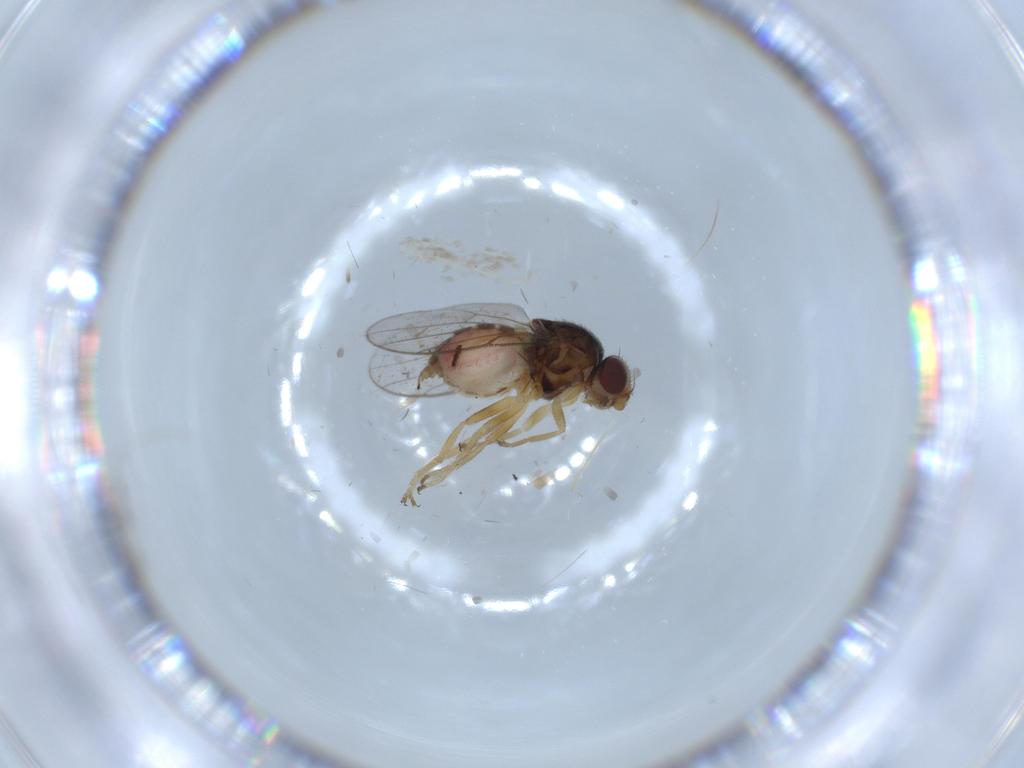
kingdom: Animalia
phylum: Arthropoda
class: Insecta
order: Diptera
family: Chloropidae
